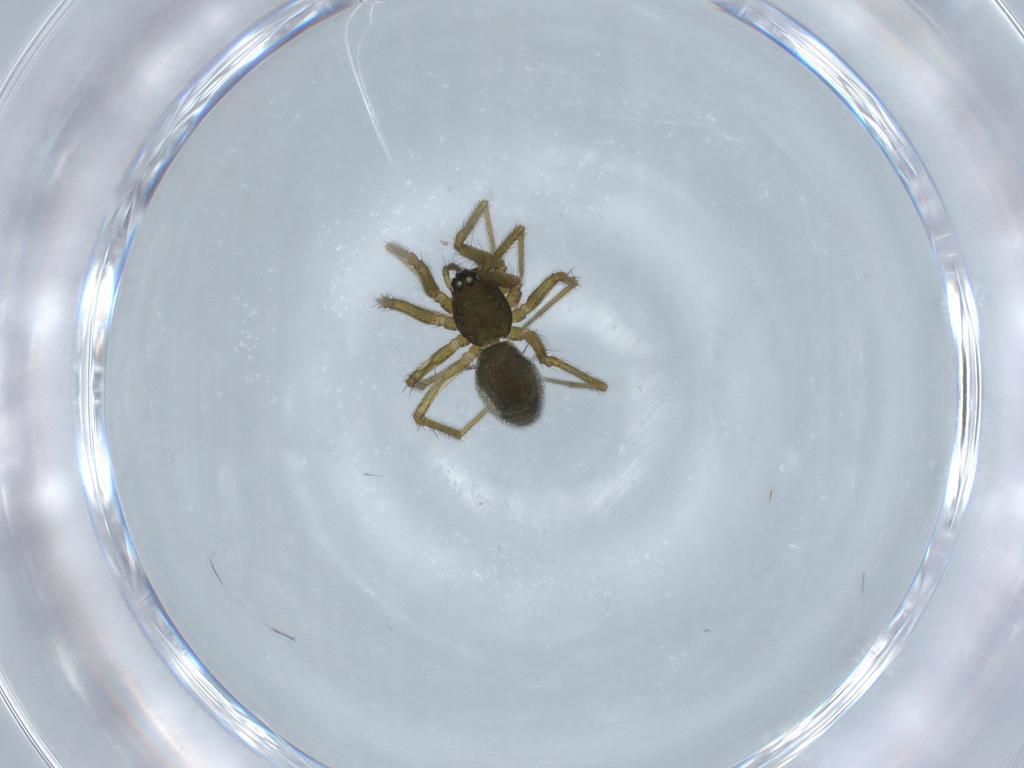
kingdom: Animalia
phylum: Arthropoda
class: Arachnida
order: Araneae
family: Linyphiidae
